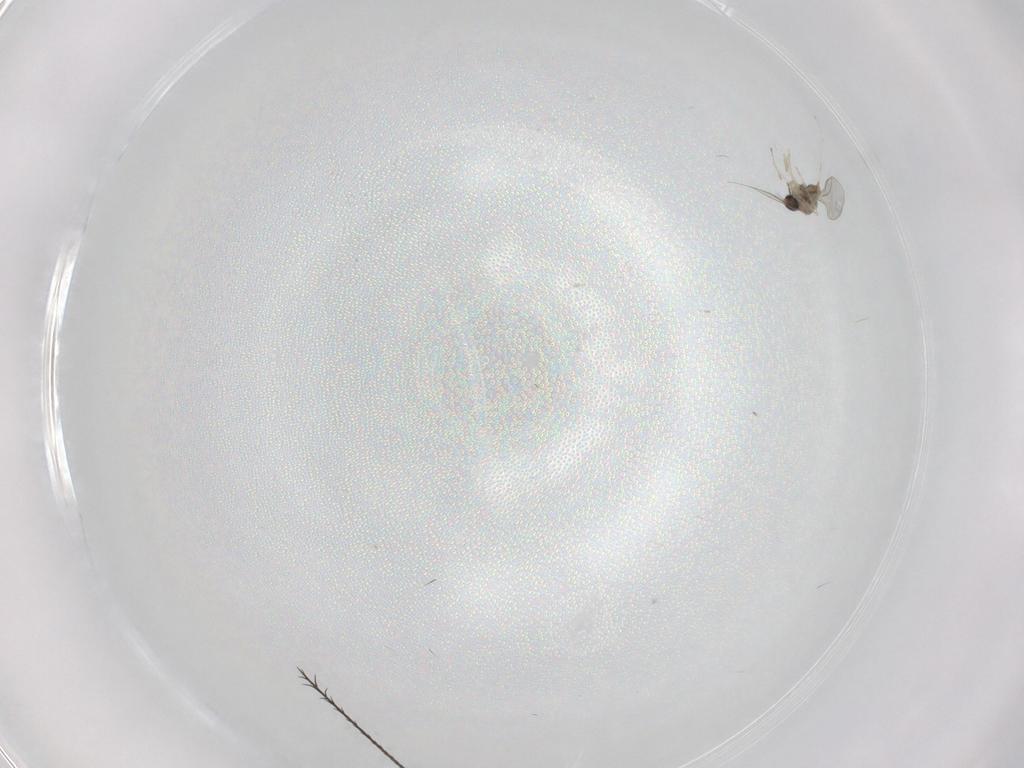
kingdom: Animalia
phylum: Arthropoda
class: Insecta
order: Diptera
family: Cecidomyiidae
